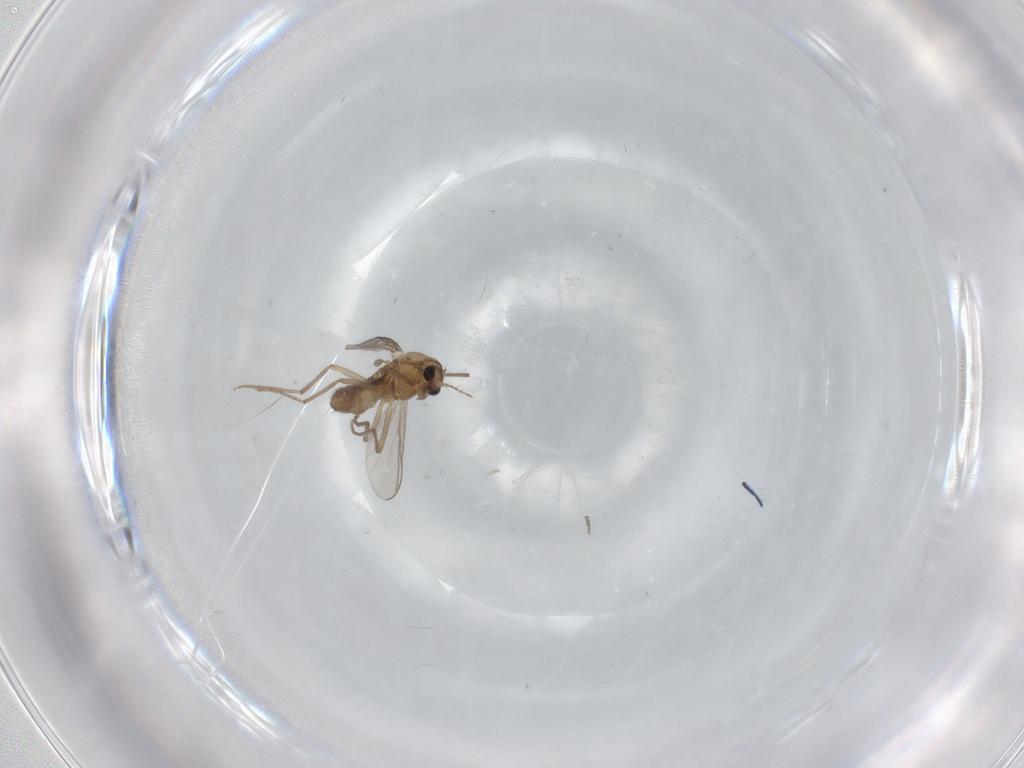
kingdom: Animalia
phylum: Arthropoda
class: Insecta
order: Diptera
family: Chironomidae
